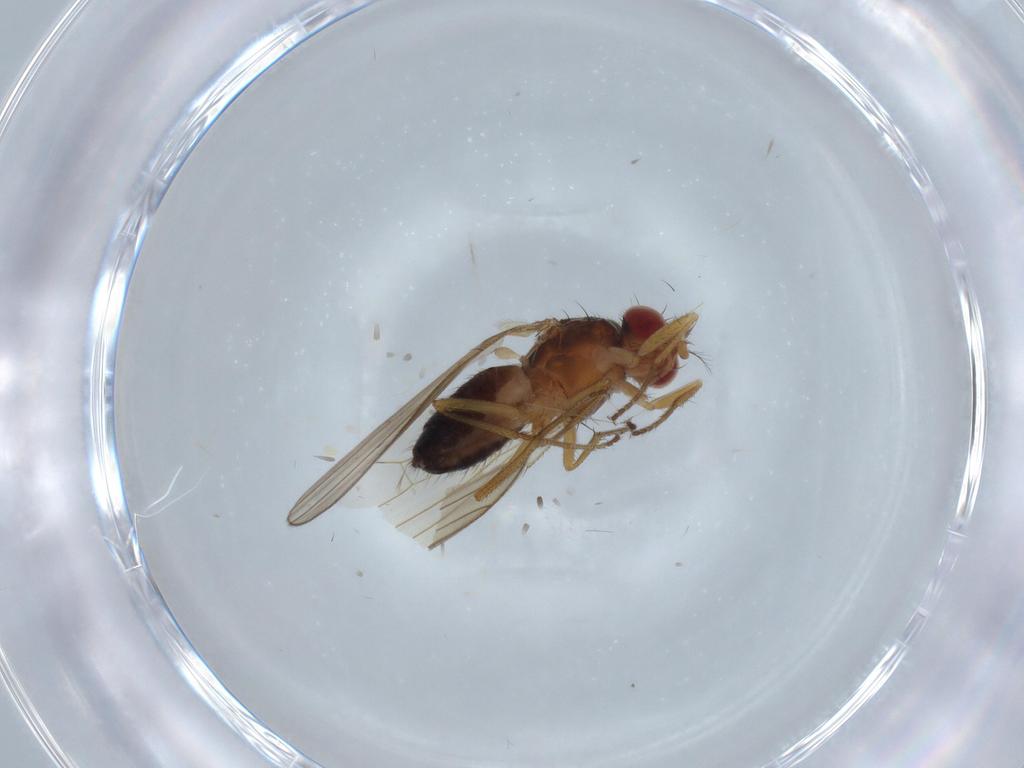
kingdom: Animalia
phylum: Arthropoda
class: Insecta
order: Diptera
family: Drosophilidae
